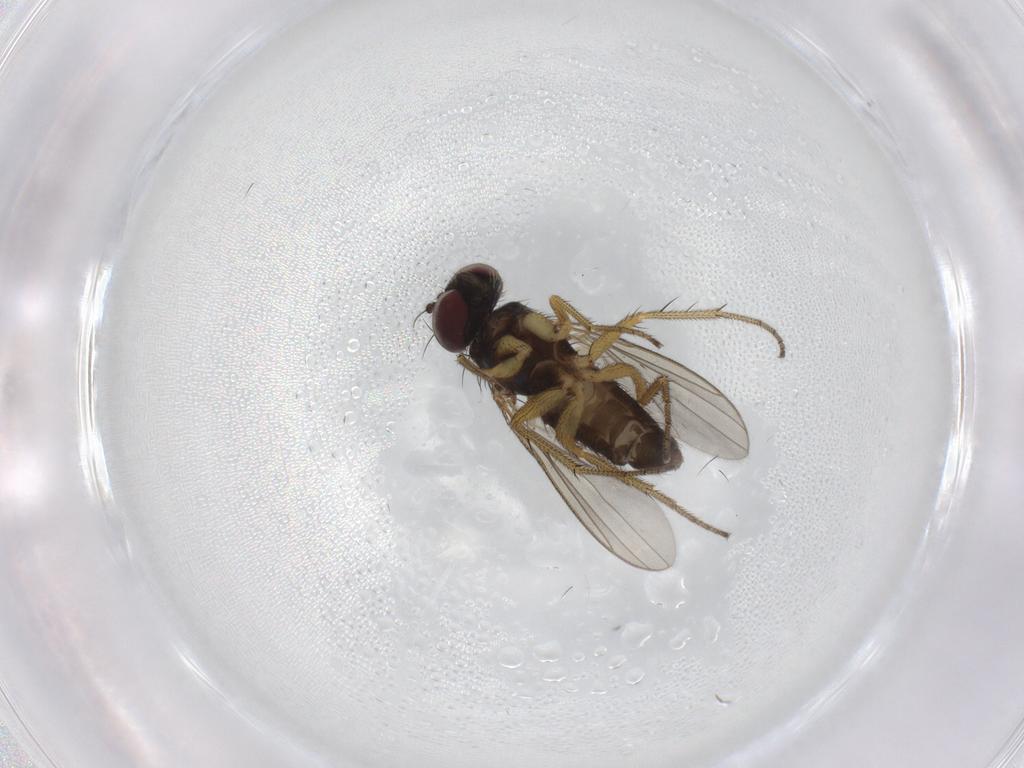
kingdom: Animalia
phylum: Arthropoda
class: Insecta
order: Diptera
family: Dolichopodidae
